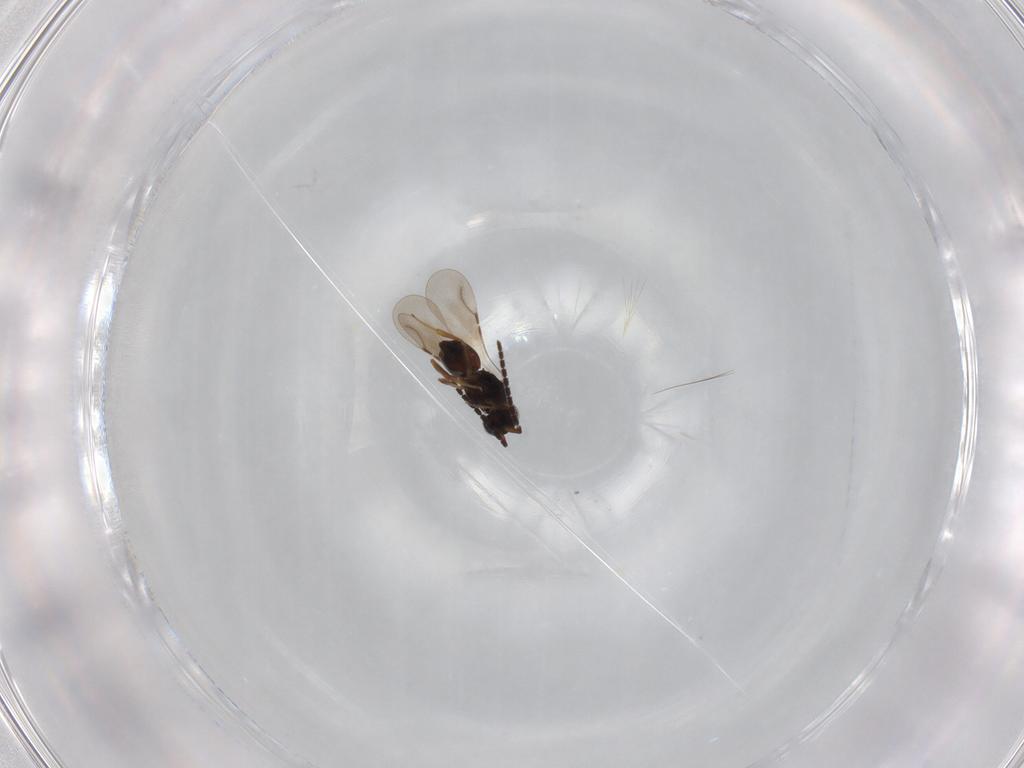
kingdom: Animalia
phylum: Arthropoda
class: Insecta
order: Hymenoptera
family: Ceraphronidae
